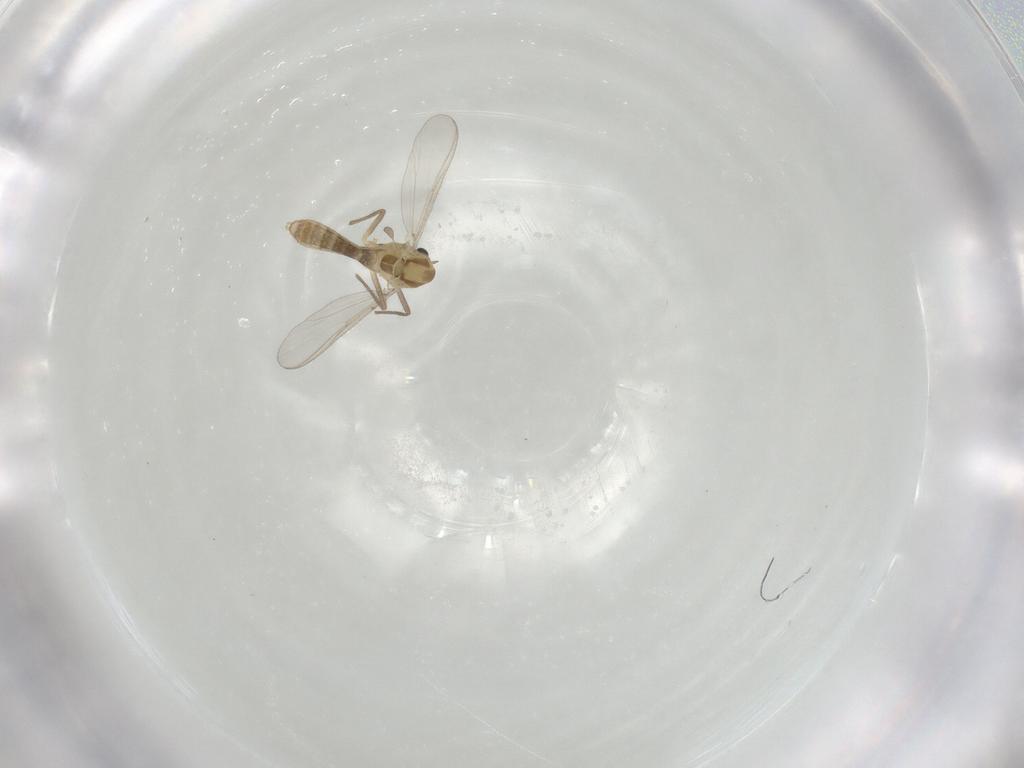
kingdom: Animalia
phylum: Arthropoda
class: Insecta
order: Diptera
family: Chironomidae
